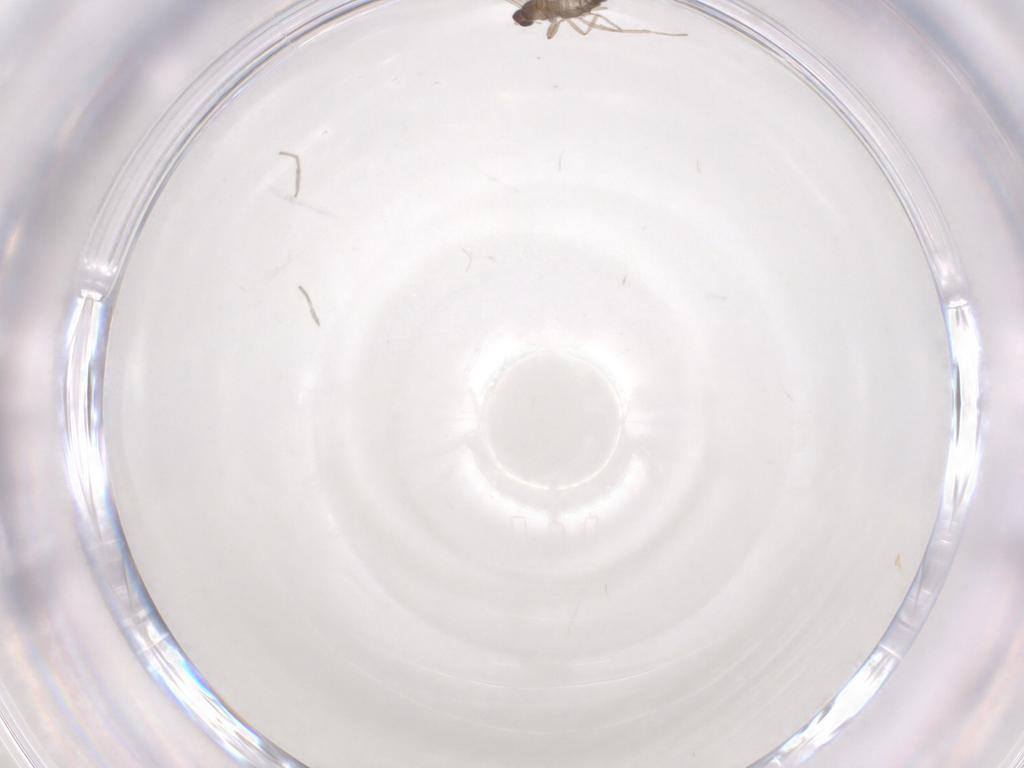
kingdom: Animalia
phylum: Arthropoda
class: Insecta
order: Diptera
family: Cecidomyiidae
